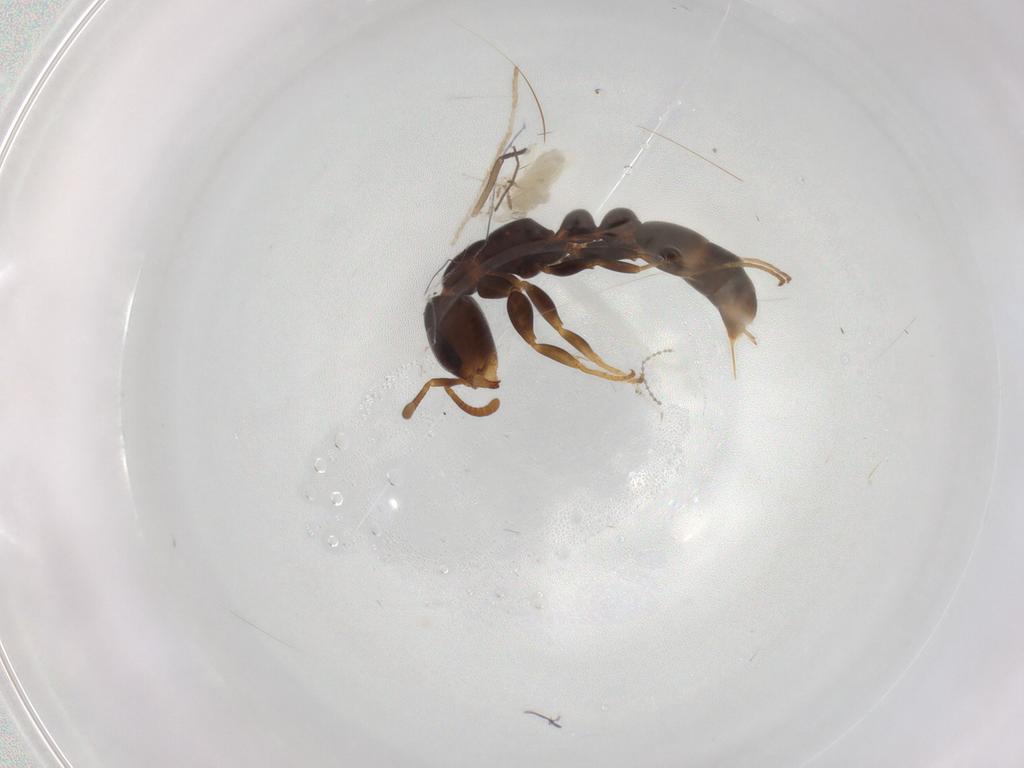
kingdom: Animalia
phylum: Arthropoda
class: Insecta
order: Hymenoptera
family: Formicidae
